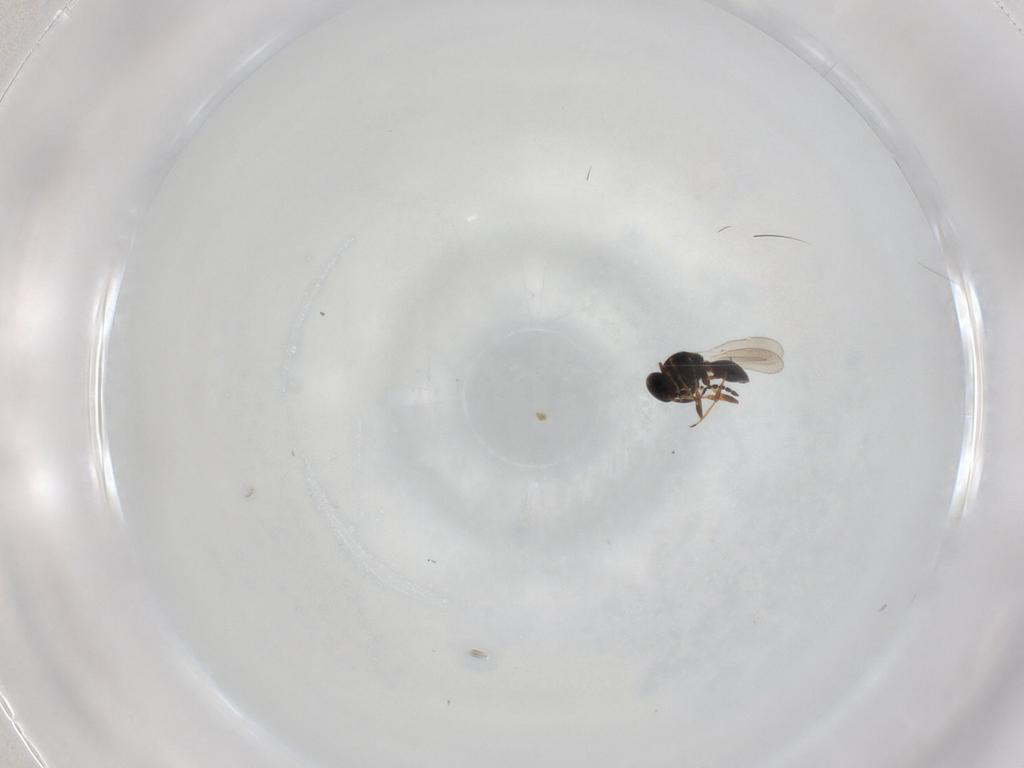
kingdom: Animalia
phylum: Arthropoda
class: Insecta
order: Hymenoptera
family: Platygastridae
